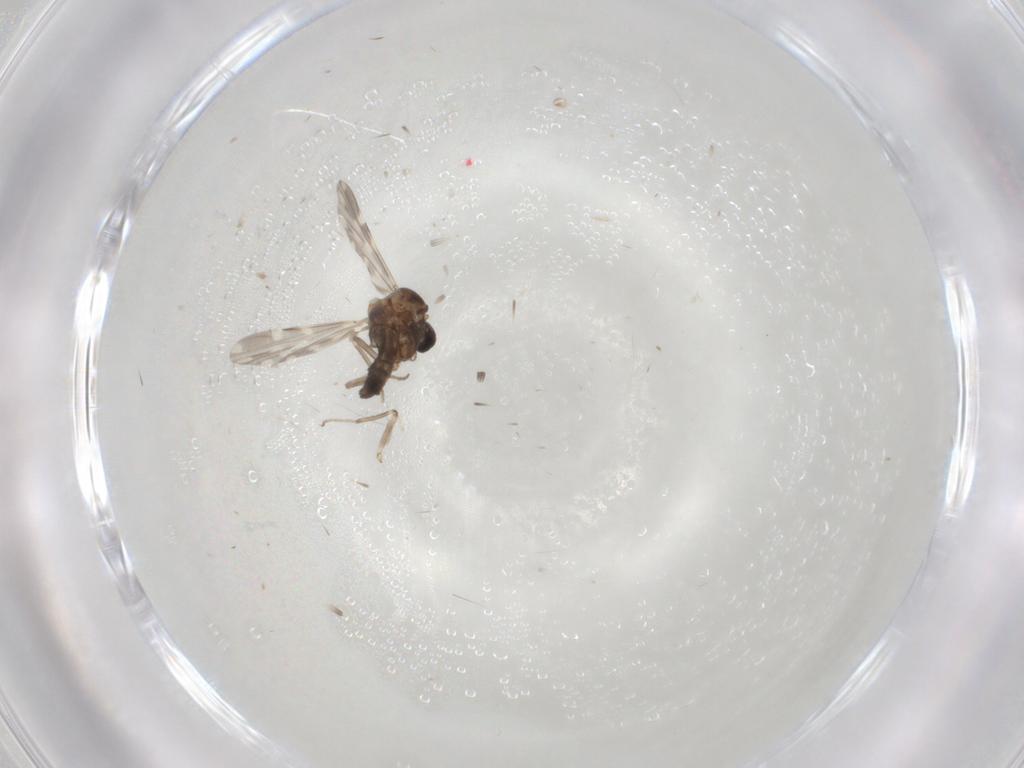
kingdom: Animalia
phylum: Arthropoda
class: Insecta
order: Diptera
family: Ceratopogonidae
